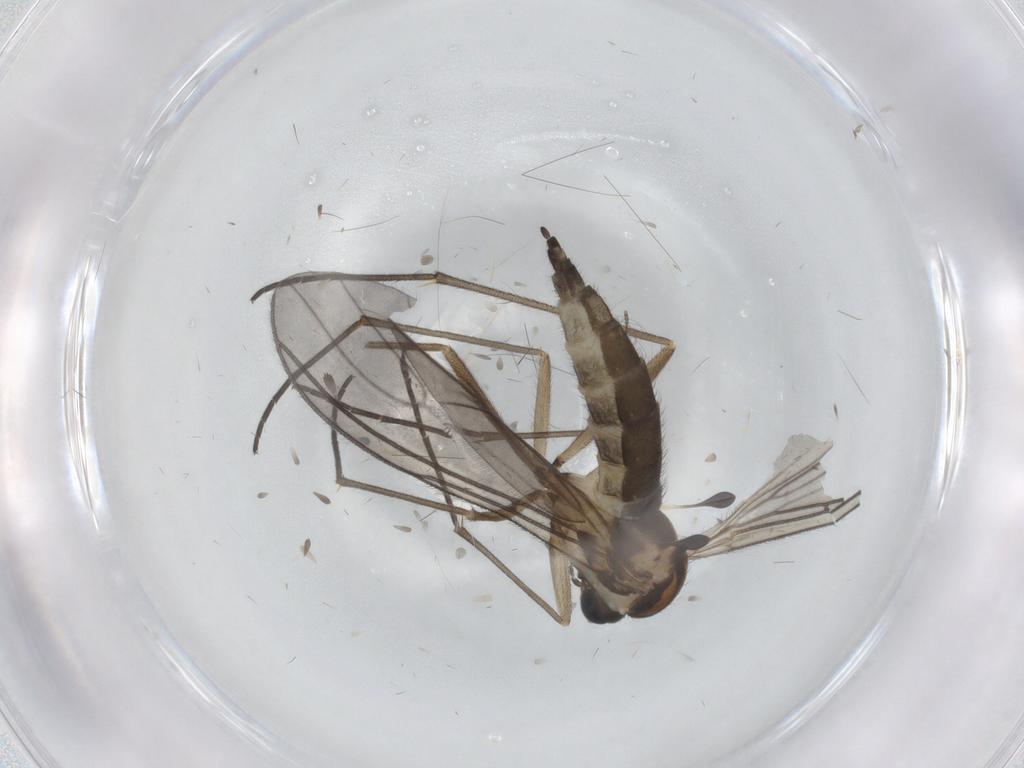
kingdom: Animalia
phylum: Arthropoda
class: Insecta
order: Diptera
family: Sciaridae
